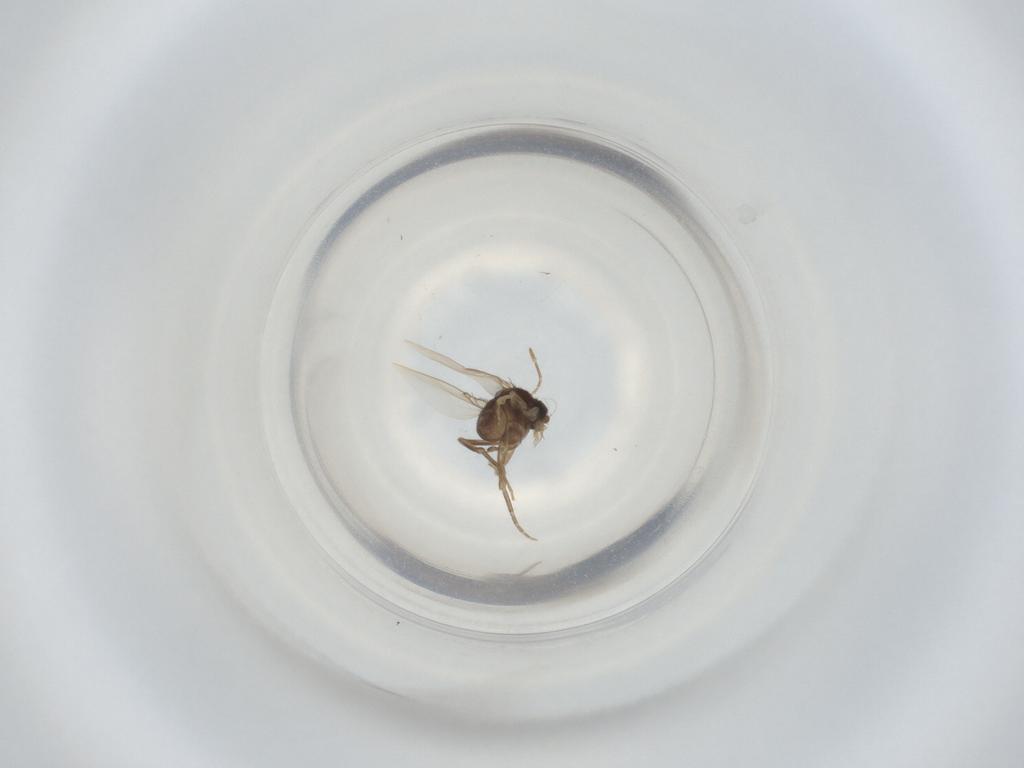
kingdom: Animalia
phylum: Arthropoda
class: Insecta
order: Diptera
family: Phoridae
